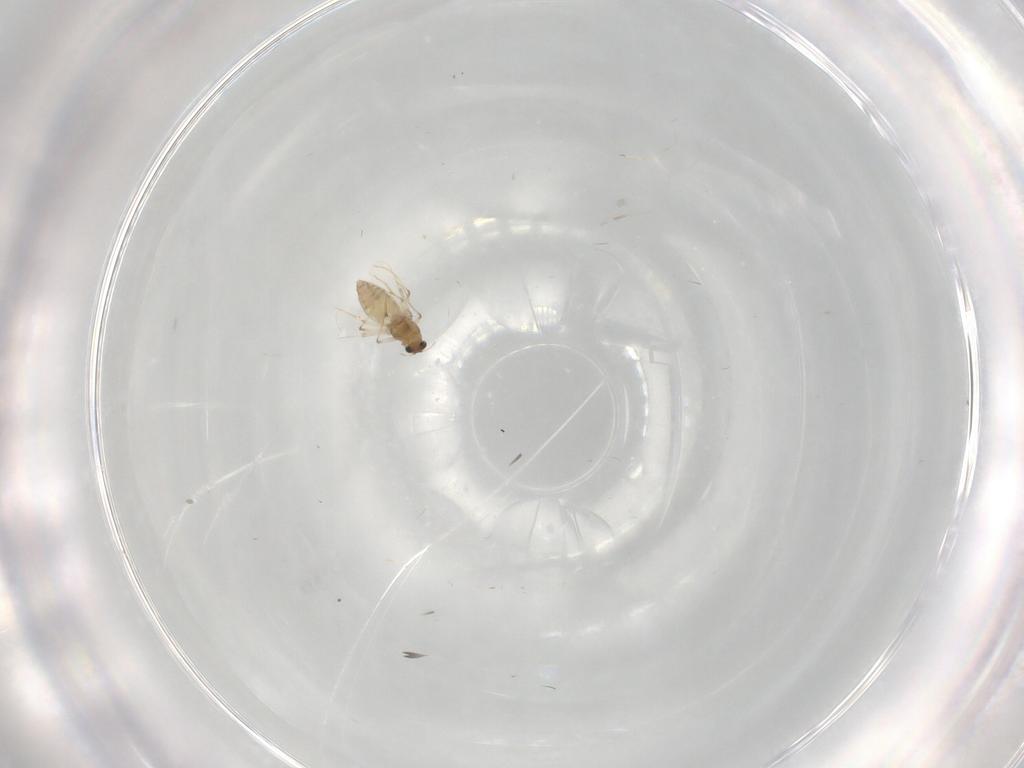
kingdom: Animalia
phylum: Arthropoda
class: Insecta
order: Diptera
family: Chironomidae
